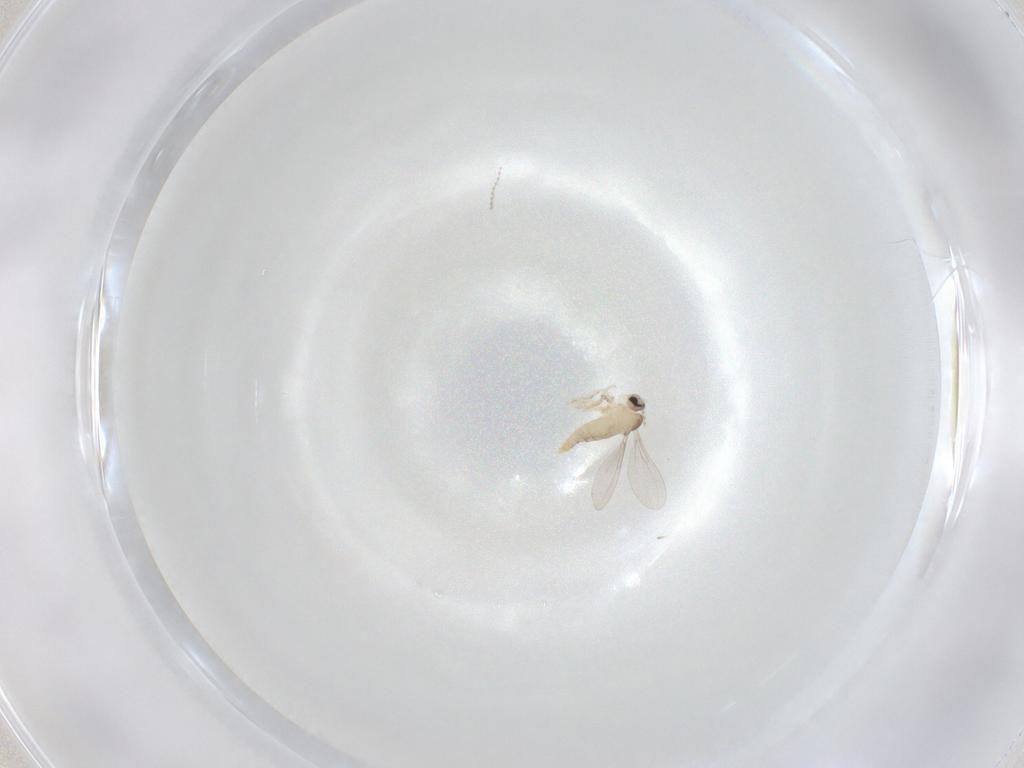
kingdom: Animalia
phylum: Arthropoda
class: Insecta
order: Diptera
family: Cecidomyiidae
